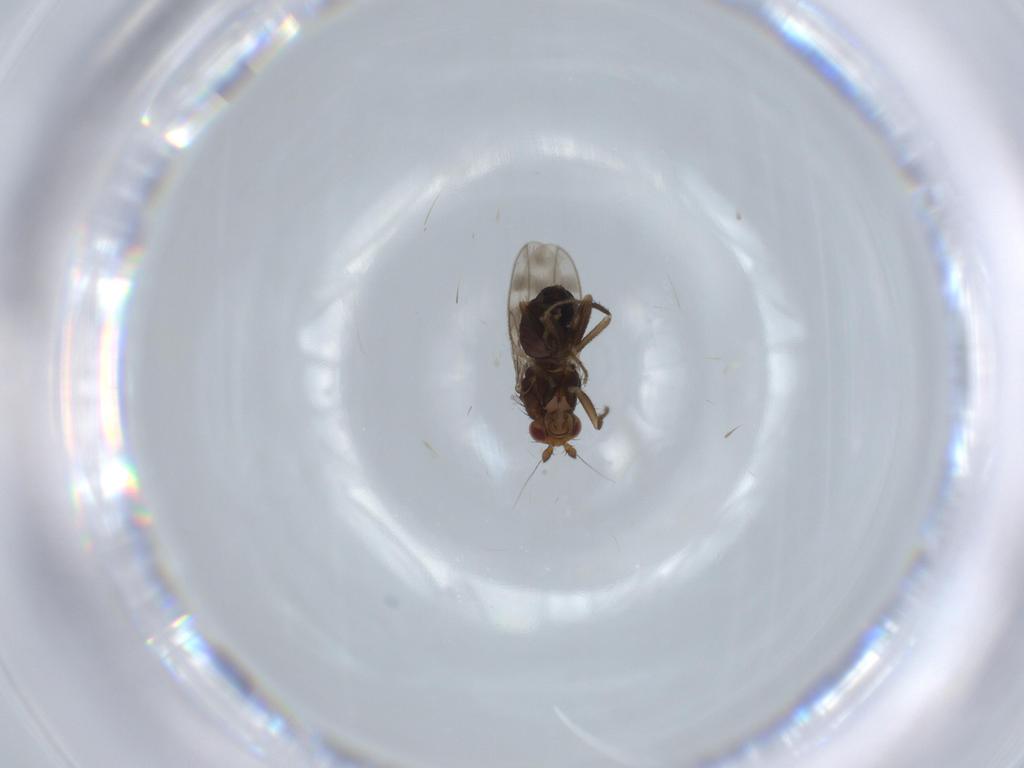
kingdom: Animalia
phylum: Arthropoda
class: Insecta
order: Diptera
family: Sphaeroceridae
